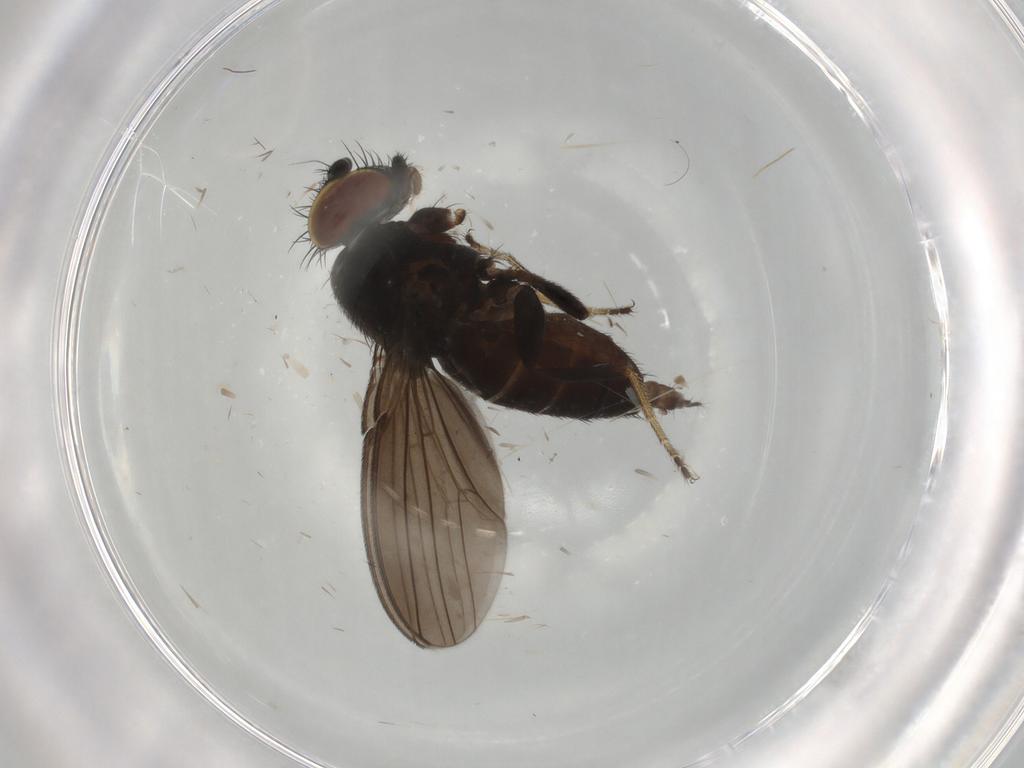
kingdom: Animalia
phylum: Arthropoda
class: Insecta
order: Diptera
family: Milichiidae
